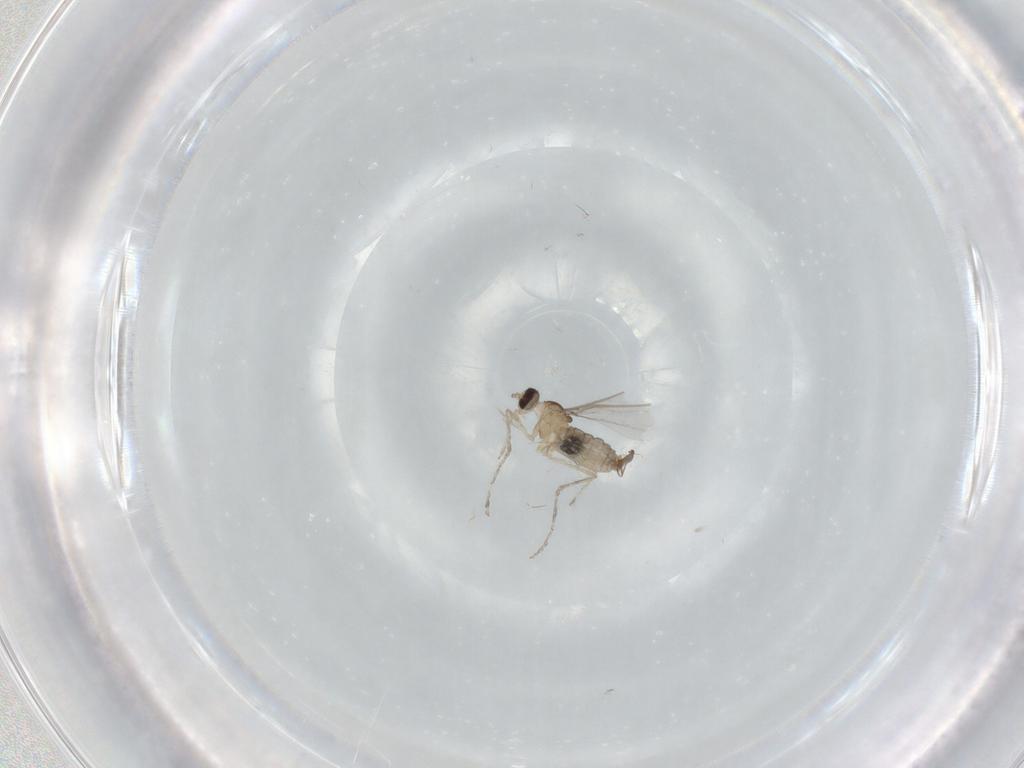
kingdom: Animalia
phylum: Arthropoda
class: Insecta
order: Diptera
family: Cecidomyiidae
